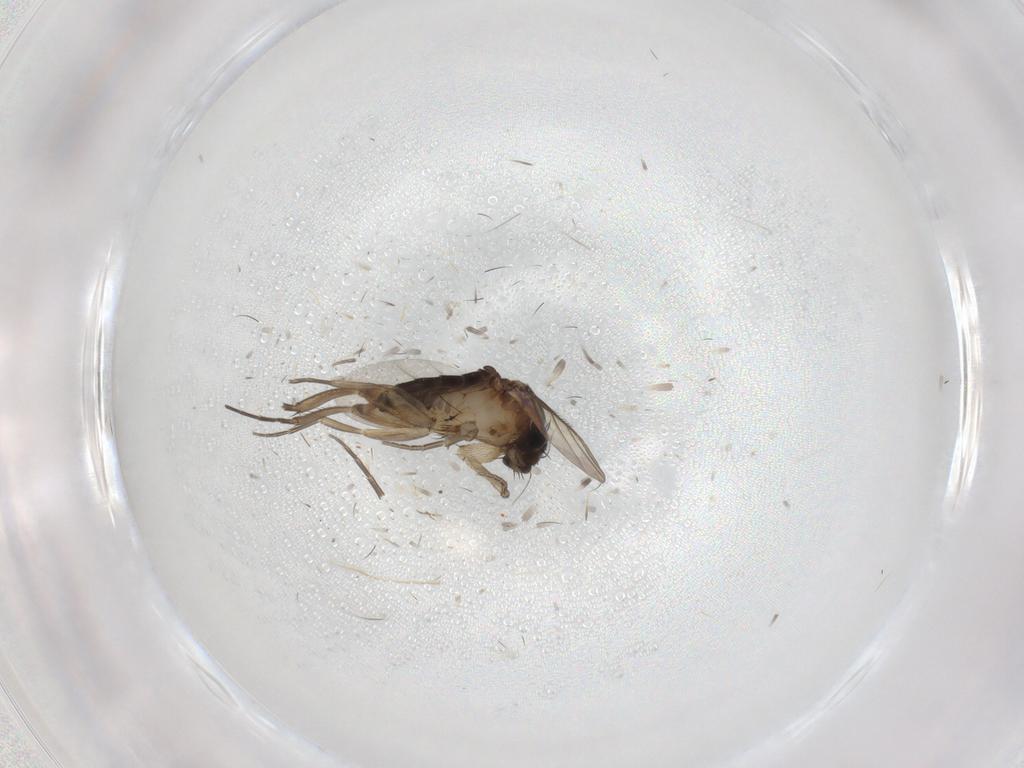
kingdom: Animalia
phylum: Arthropoda
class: Insecta
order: Diptera
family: Phoridae
